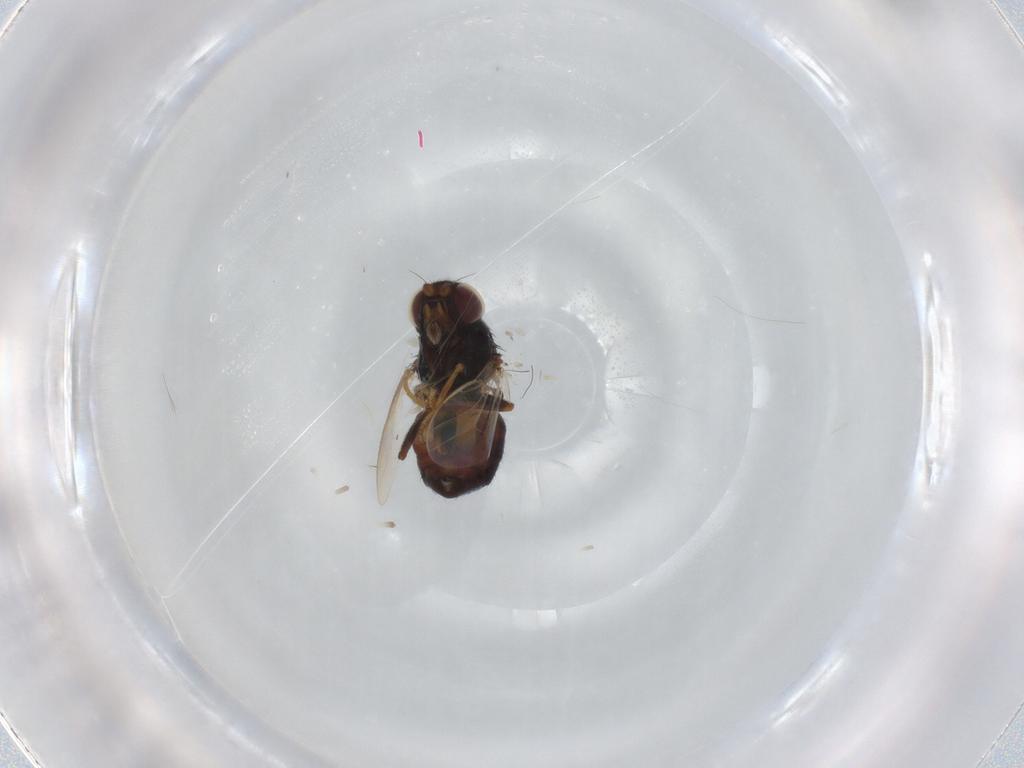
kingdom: Animalia
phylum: Arthropoda
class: Insecta
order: Diptera
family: Chloropidae
